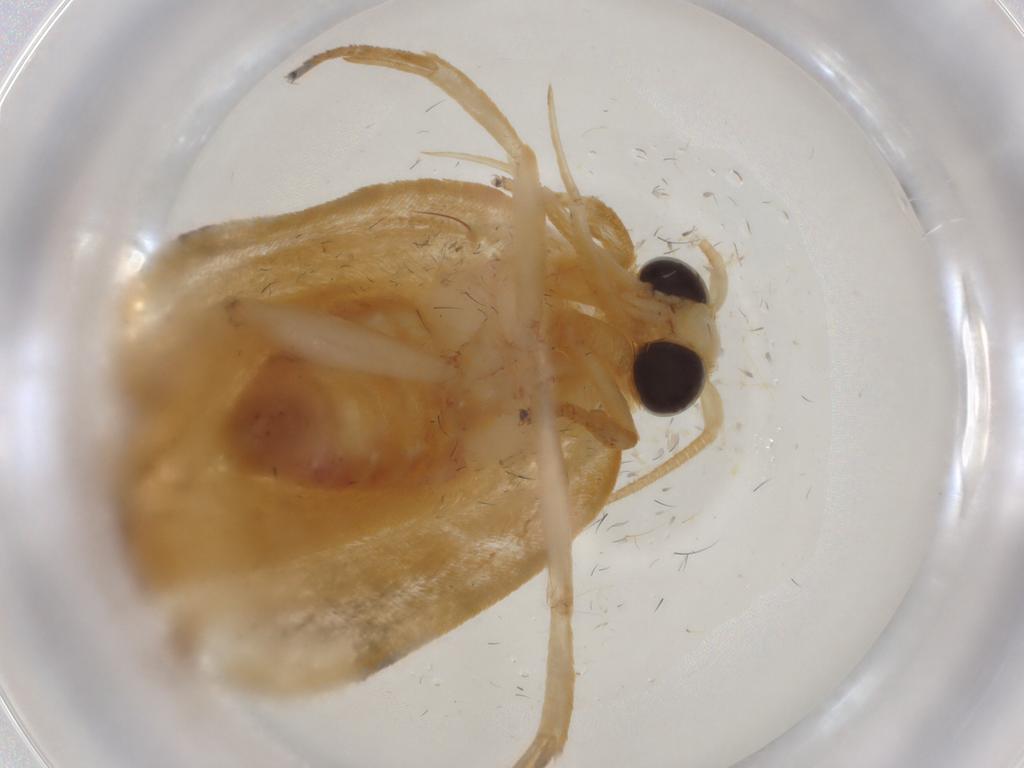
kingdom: Animalia
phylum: Arthropoda
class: Insecta
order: Lepidoptera
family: Depressariidae
